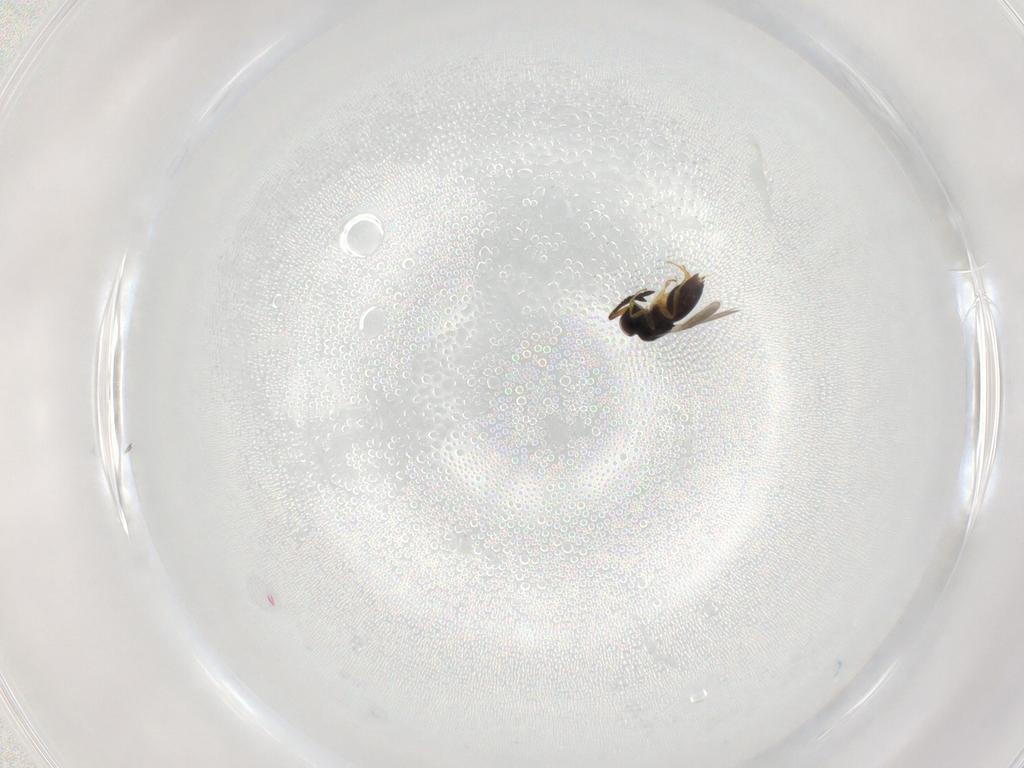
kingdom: Animalia
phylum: Arthropoda
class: Insecta
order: Hymenoptera
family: Ceraphronidae
